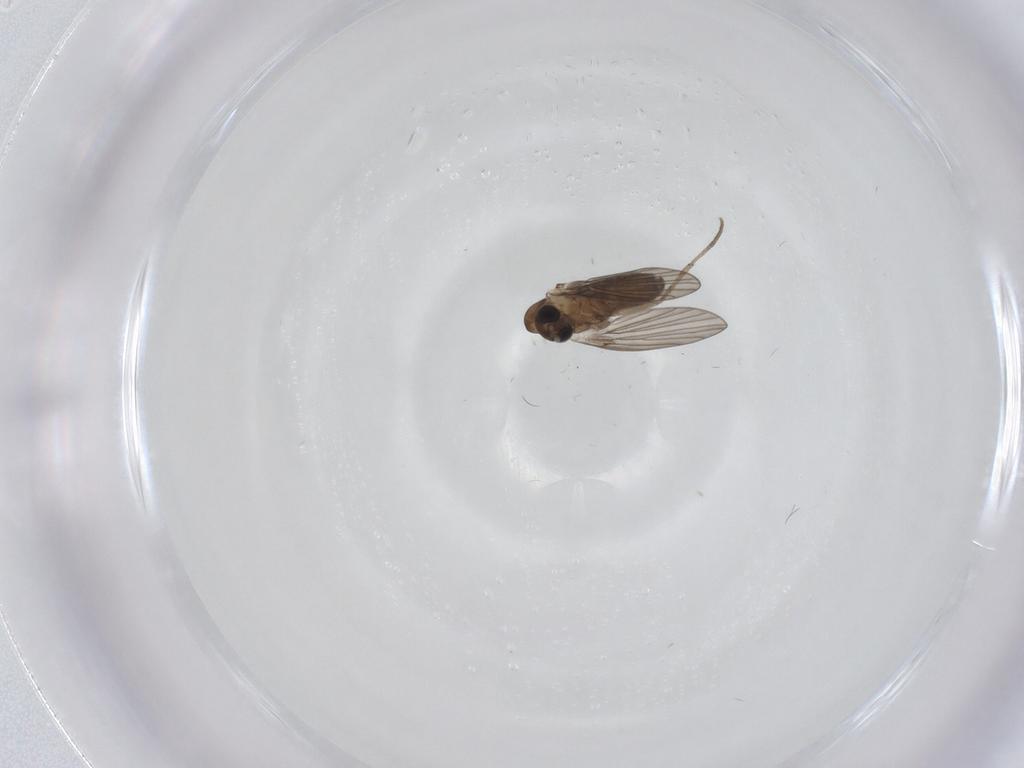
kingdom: Animalia
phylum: Arthropoda
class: Insecta
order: Diptera
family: Psychodidae
